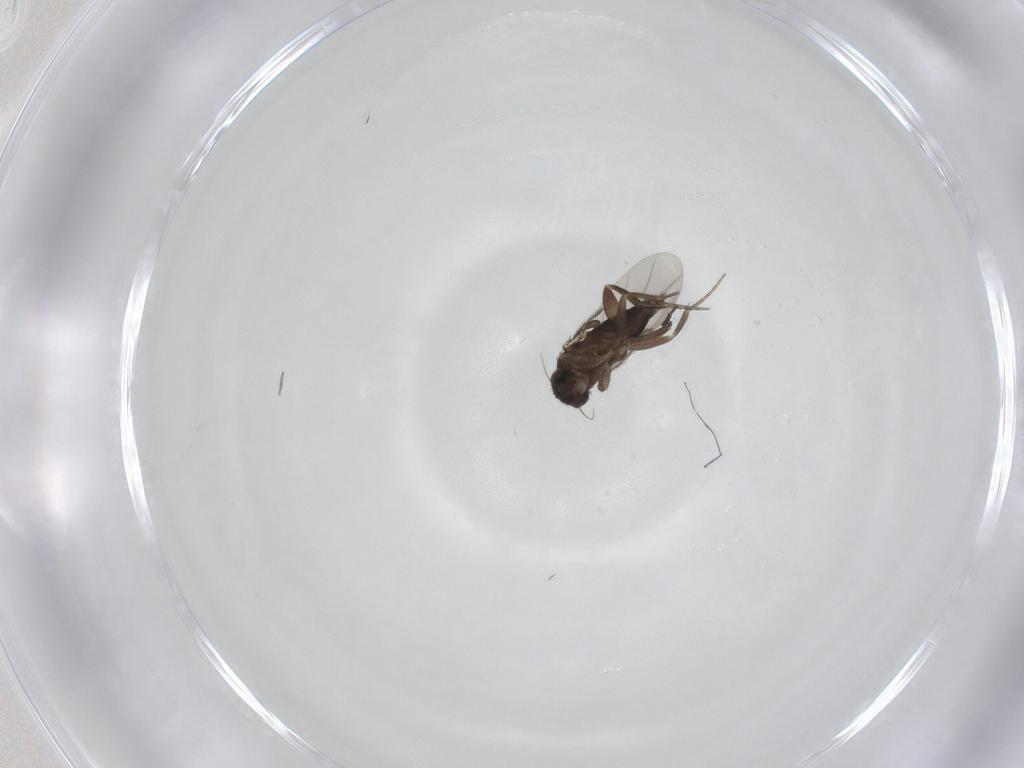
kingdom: Animalia
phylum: Arthropoda
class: Insecta
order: Diptera
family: Phoridae
